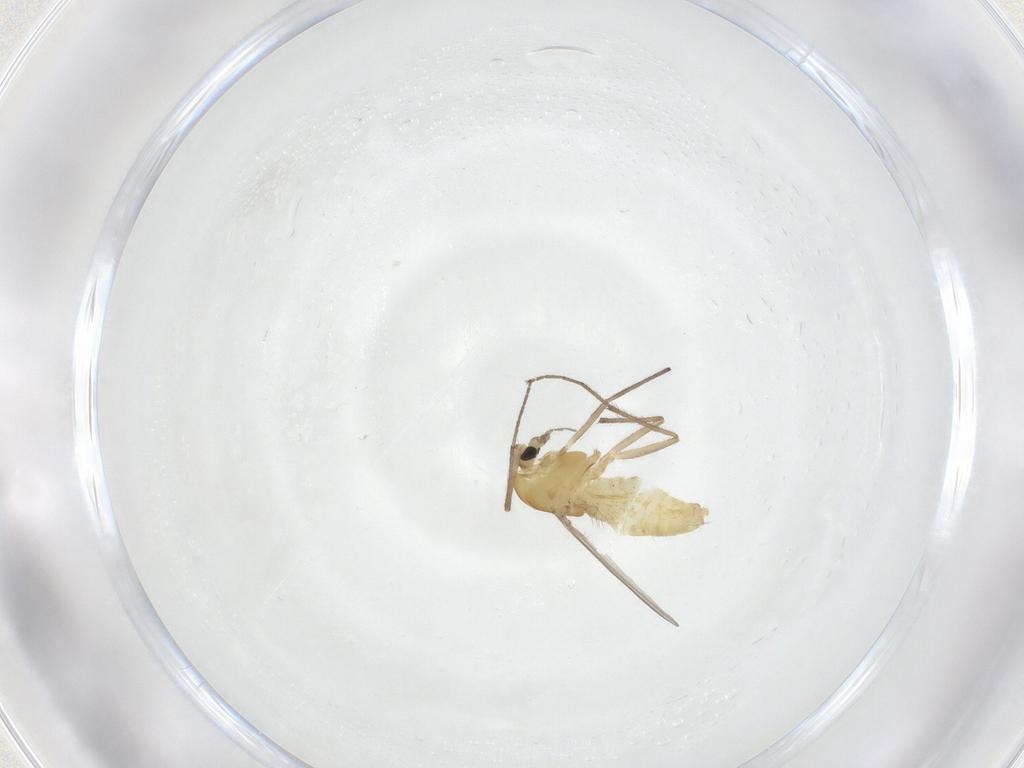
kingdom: Animalia
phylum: Arthropoda
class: Insecta
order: Diptera
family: Chironomidae
